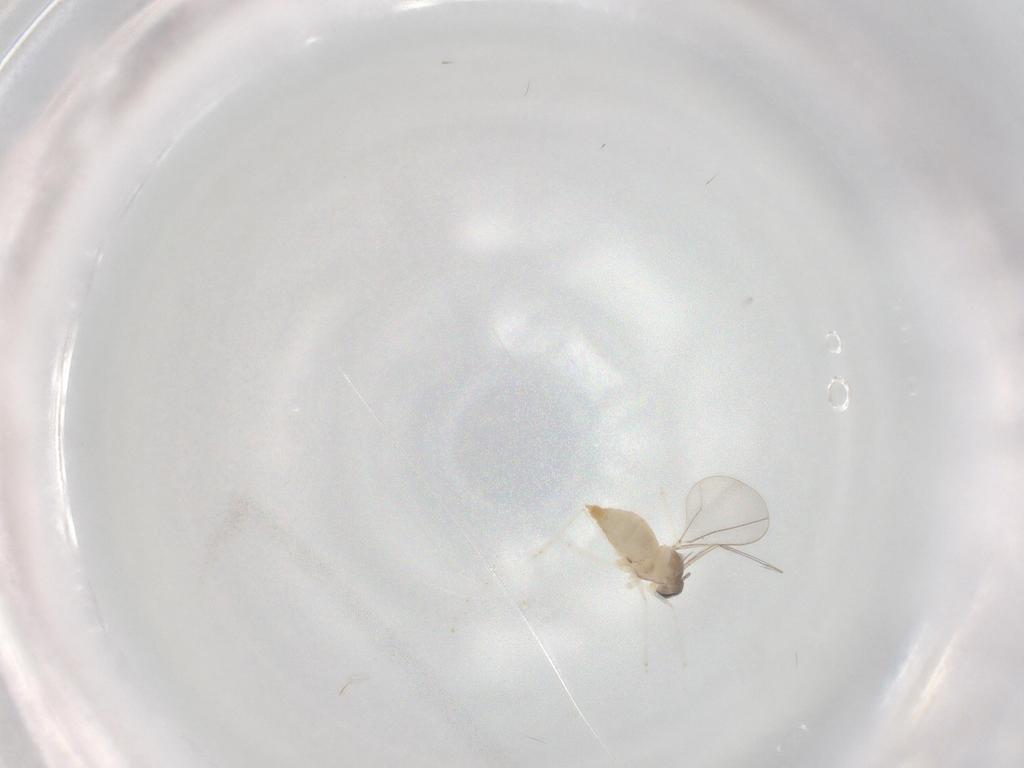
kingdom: Animalia
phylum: Arthropoda
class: Insecta
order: Diptera
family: Cecidomyiidae
